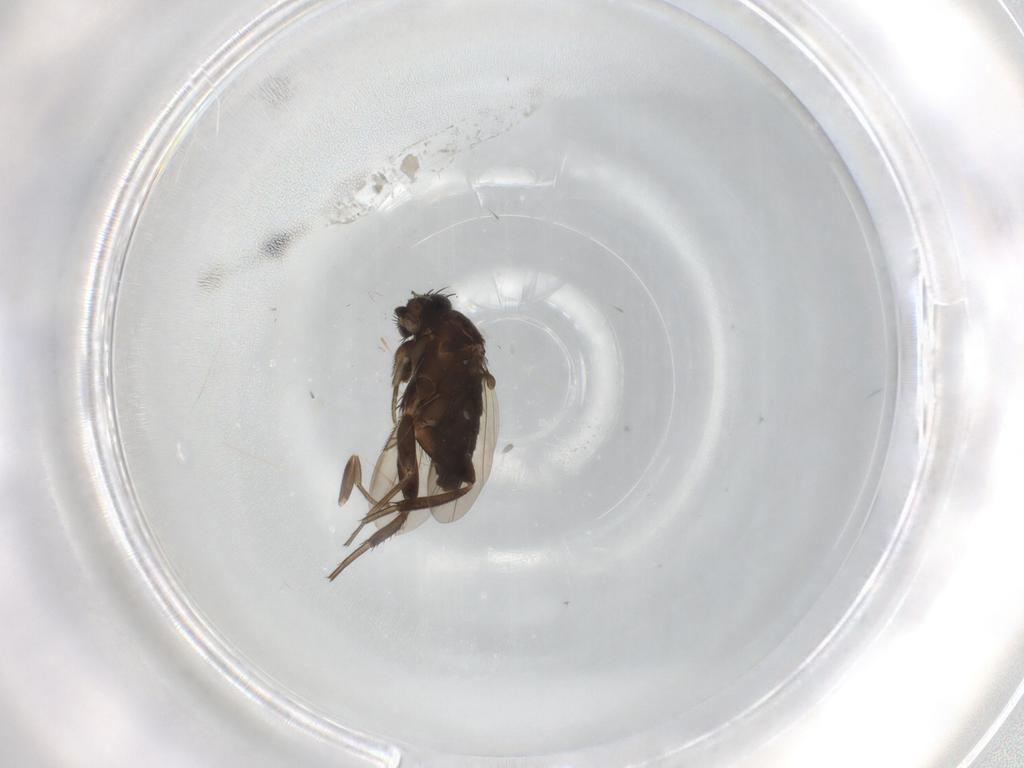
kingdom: Animalia
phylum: Arthropoda
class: Insecta
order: Diptera
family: Phoridae
